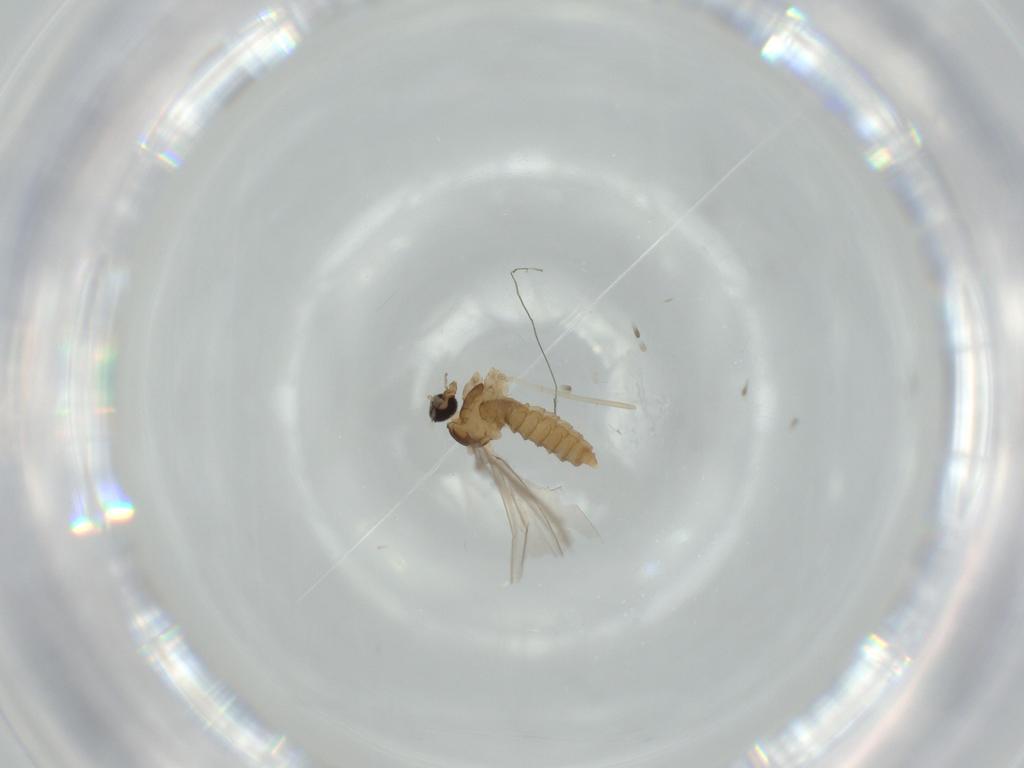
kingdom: Animalia
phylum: Arthropoda
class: Insecta
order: Diptera
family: Cecidomyiidae
